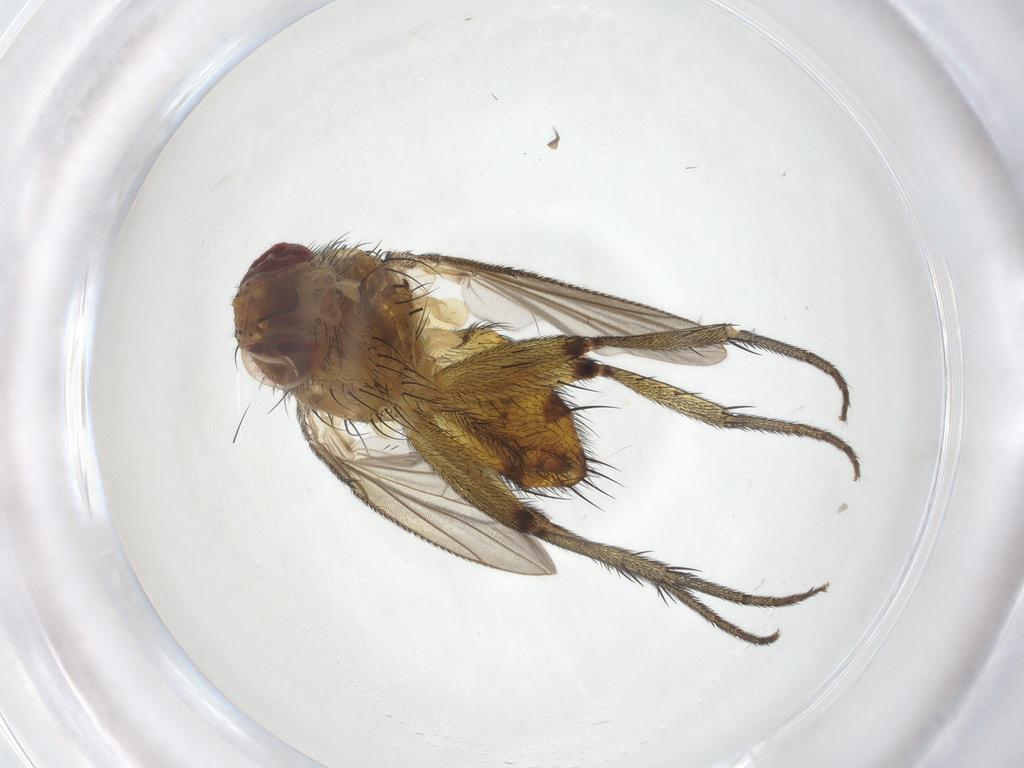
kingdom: Animalia
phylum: Arthropoda
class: Insecta
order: Diptera
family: Tachinidae
